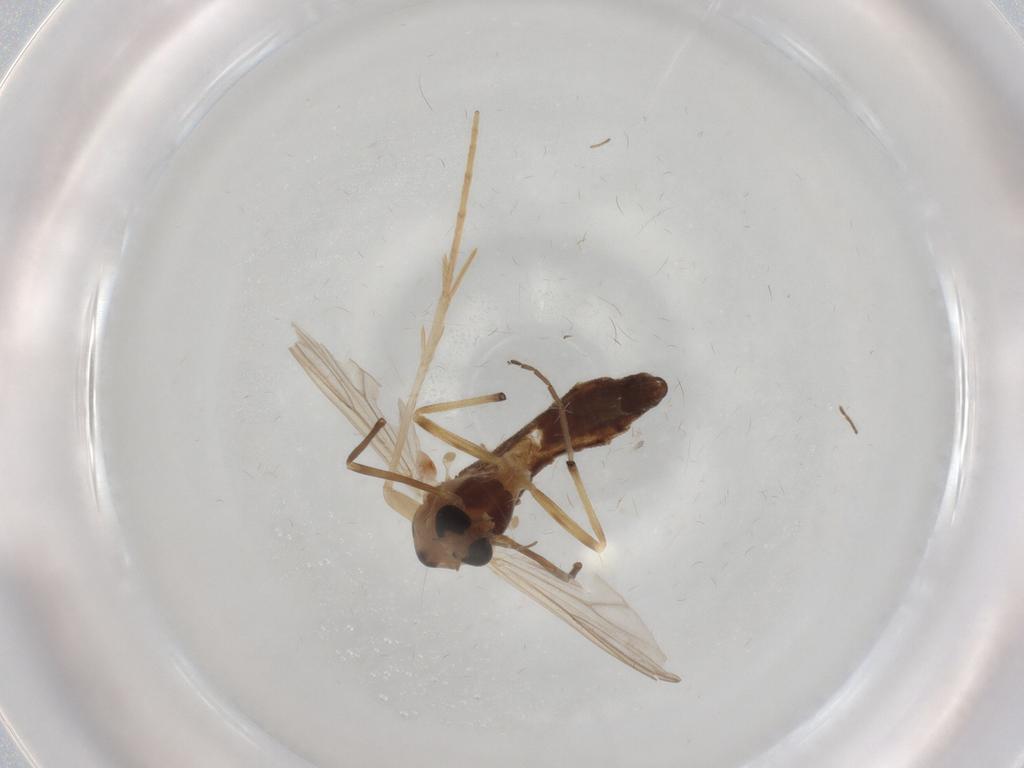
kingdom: Animalia
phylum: Arthropoda
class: Insecta
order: Diptera
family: Chironomidae
